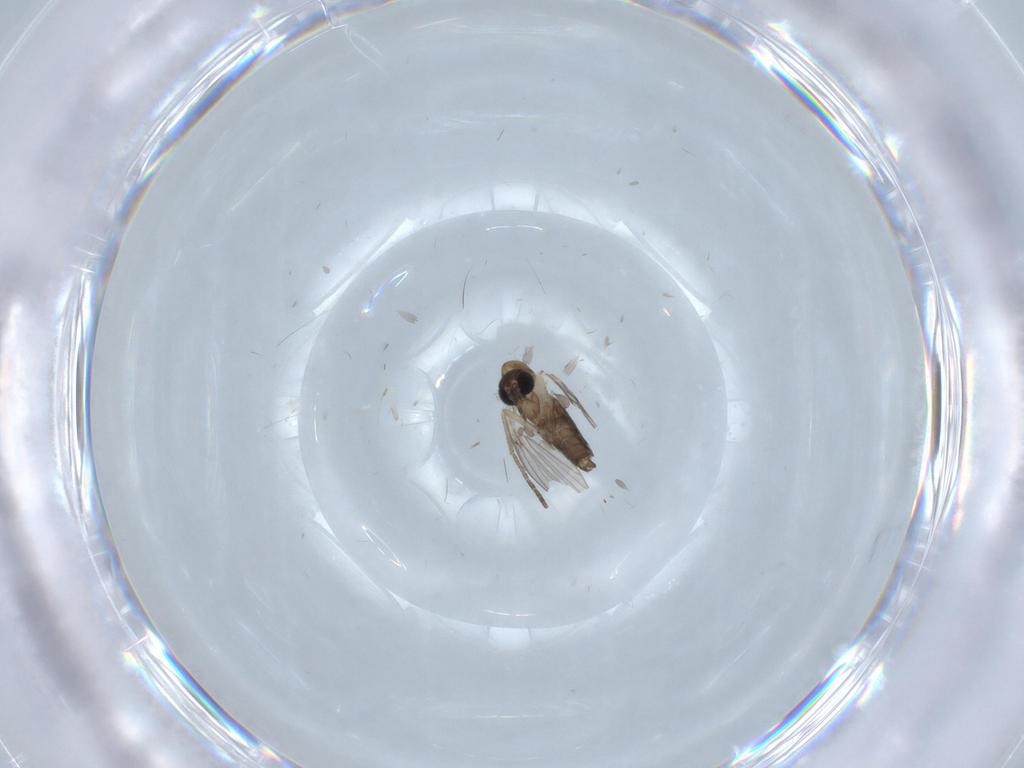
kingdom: Animalia
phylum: Arthropoda
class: Insecta
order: Diptera
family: Psychodidae
